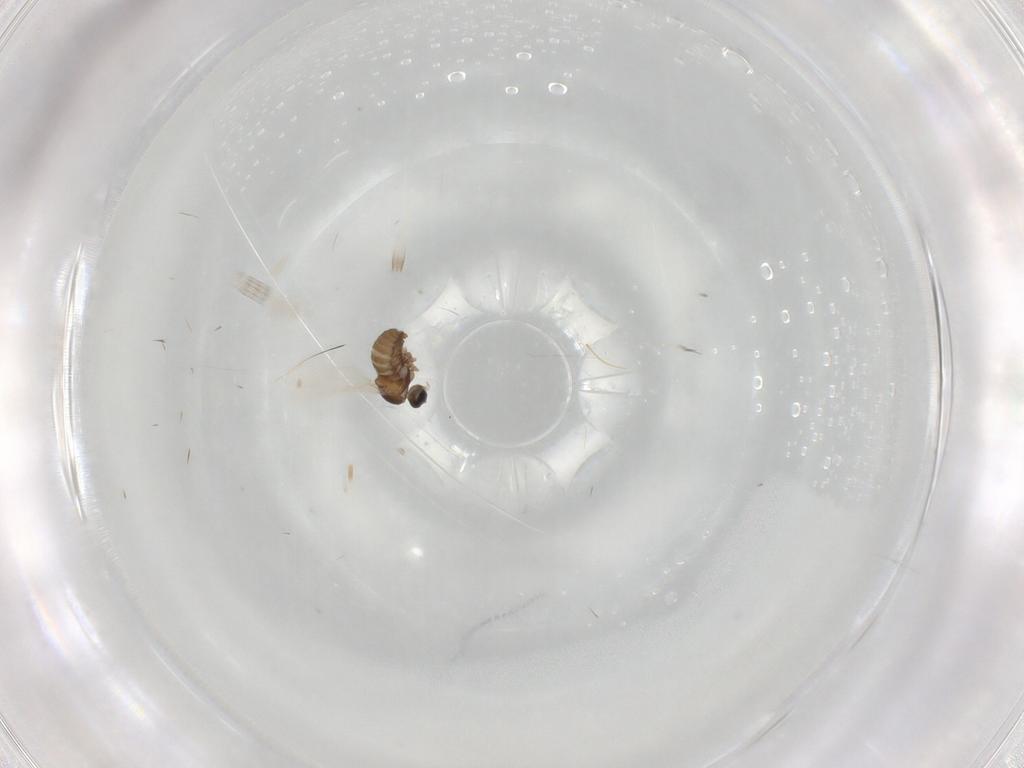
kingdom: Animalia
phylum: Arthropoda
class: Insecta
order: Diptera
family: Cecidomyiidae
